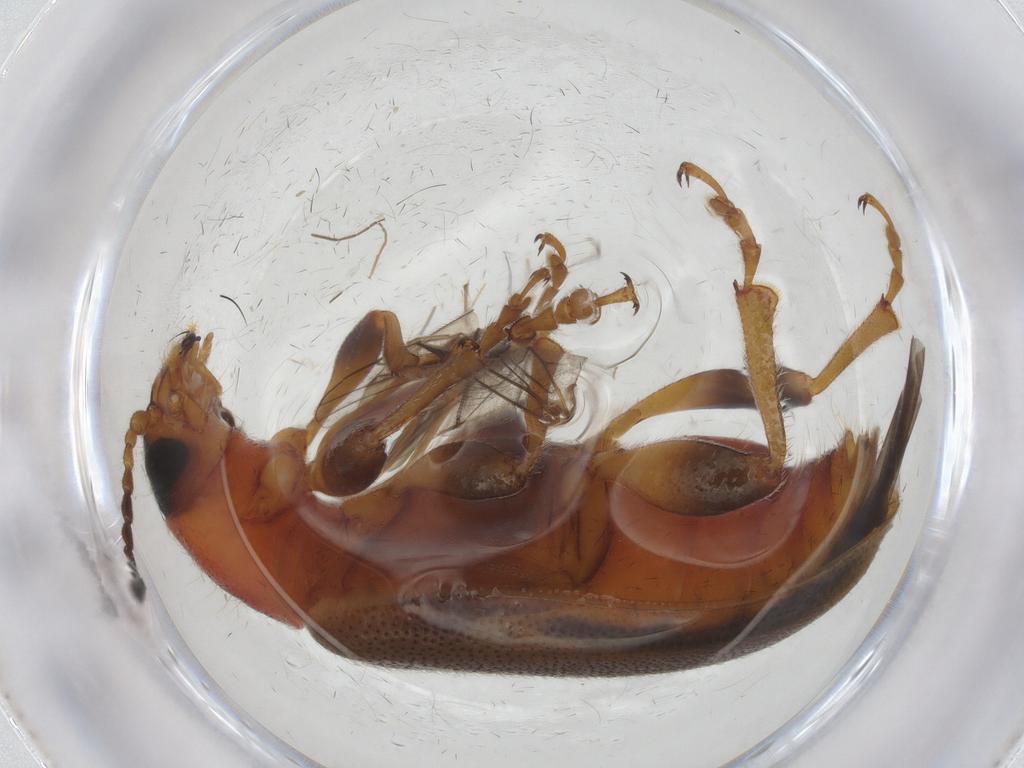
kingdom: Animalia
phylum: Arthropoda
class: Insecta
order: Coleoptera
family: Orsodacnidae
